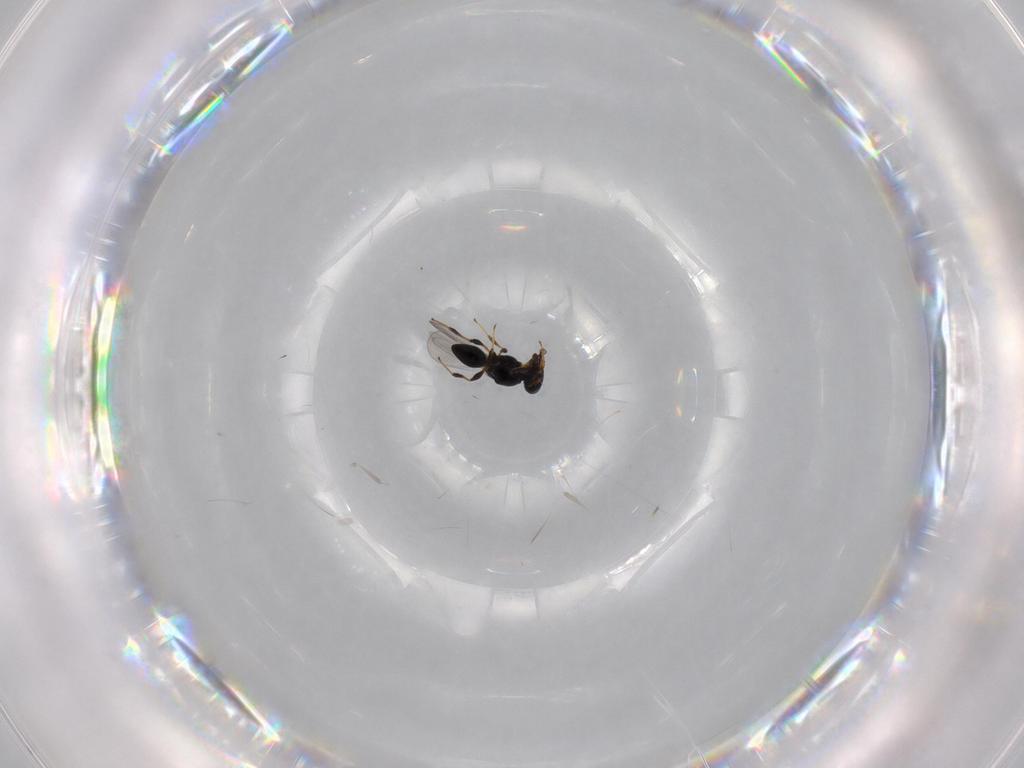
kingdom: Animalia
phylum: Arthropoda
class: Insecta
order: Hymenoptera
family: Platygastridae
